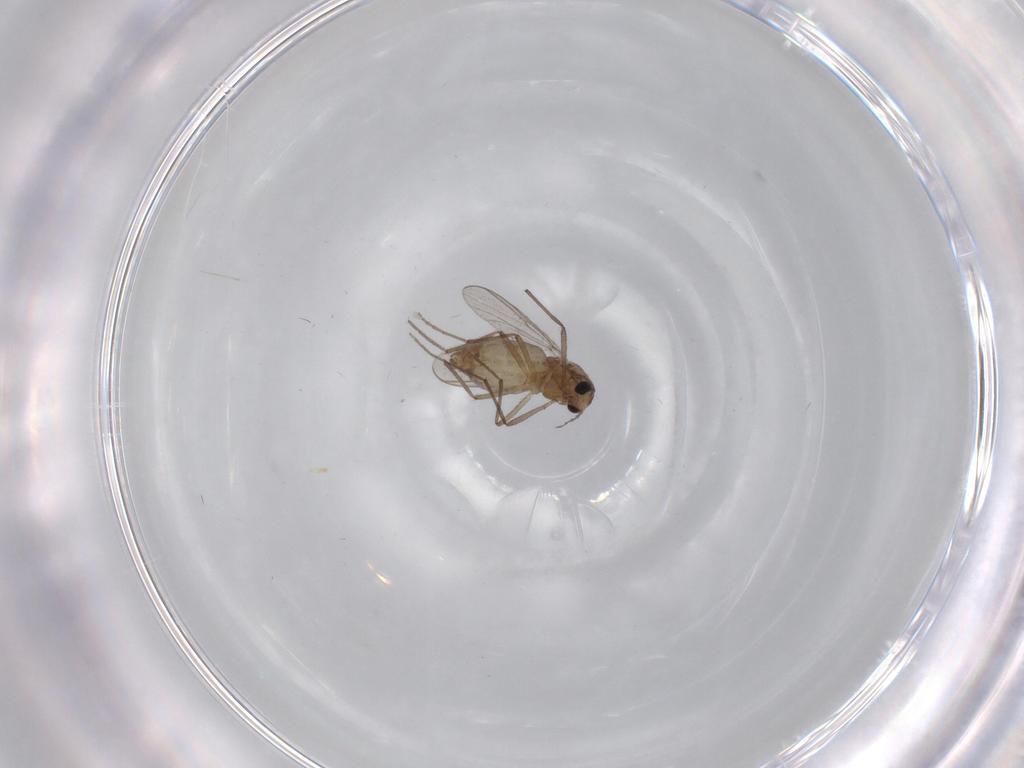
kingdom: Animalia
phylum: Arthropoda
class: Insecta
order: Diptera
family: Chironomidae
